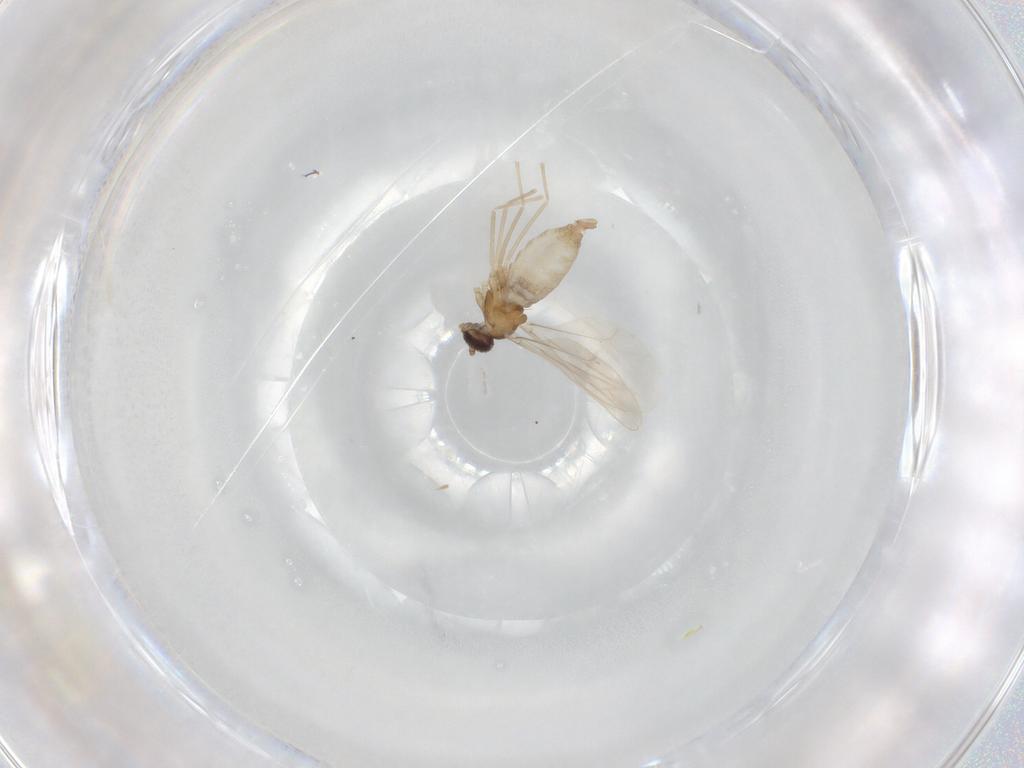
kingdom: Animalia
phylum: Arthropoda
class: Insecta
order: Diptera
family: Cecidomyiidae
